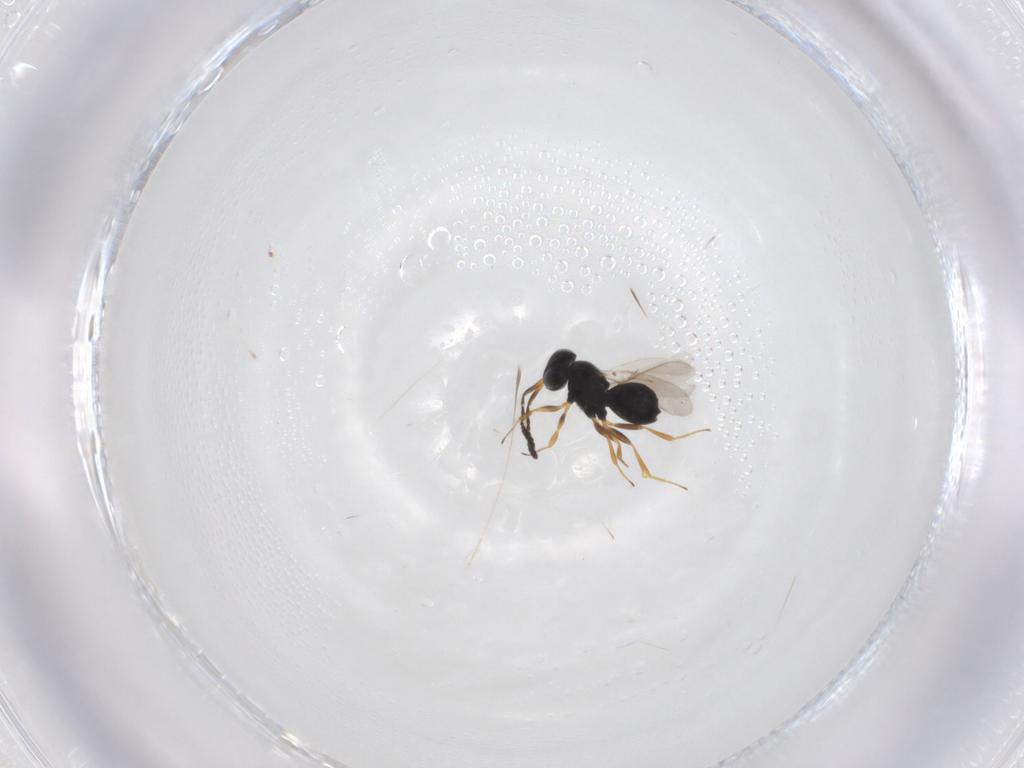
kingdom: Animalia
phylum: Arthropoda
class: Insecta
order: Hymenoptera
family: Scelionidae
